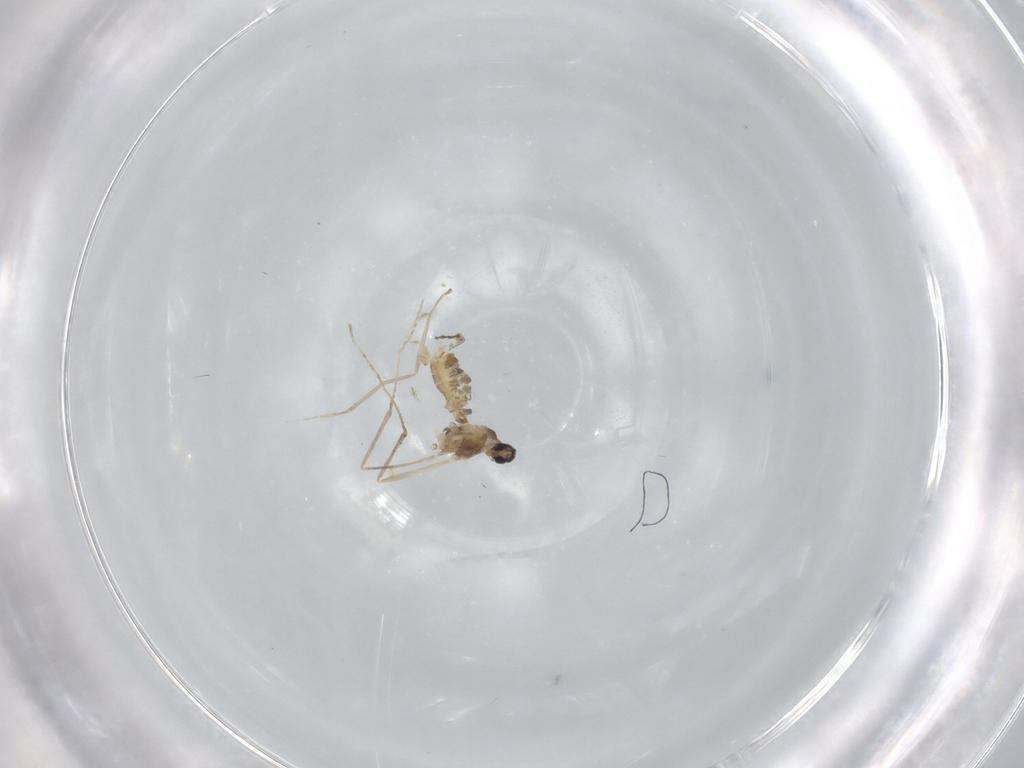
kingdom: Animalia
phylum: Arthropoda
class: Insecta
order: Diptera
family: Cecidomyiidae
